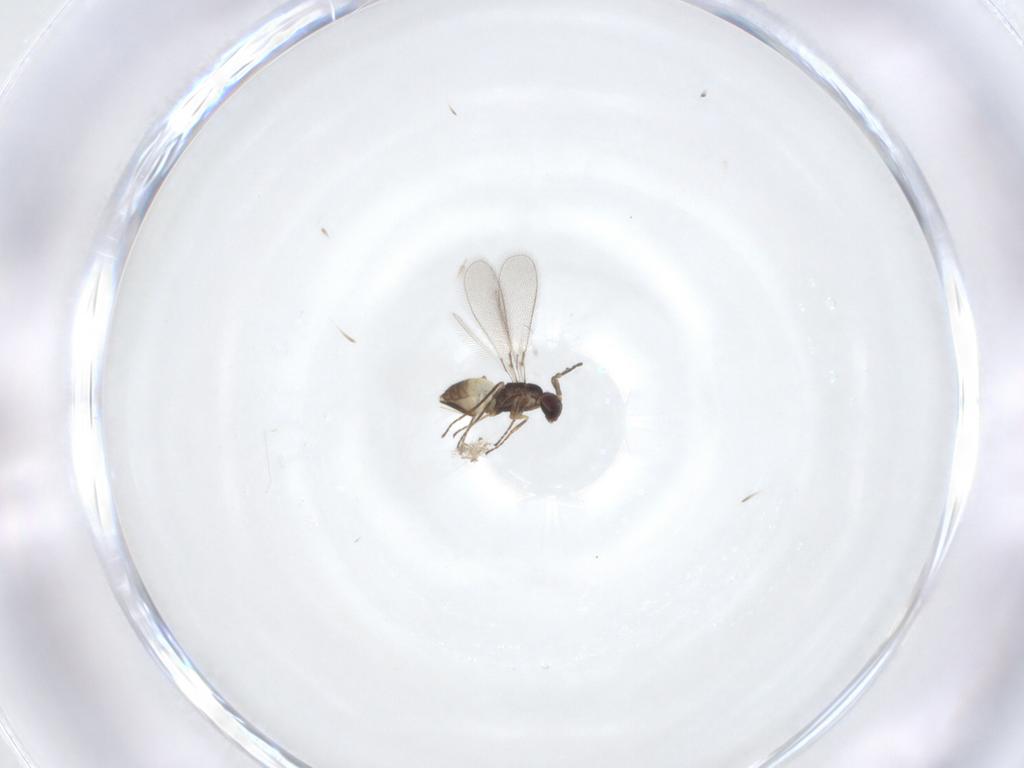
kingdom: Animalia
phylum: Arthropoda
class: Insecta
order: Hymenoptera
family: Mymaridae
